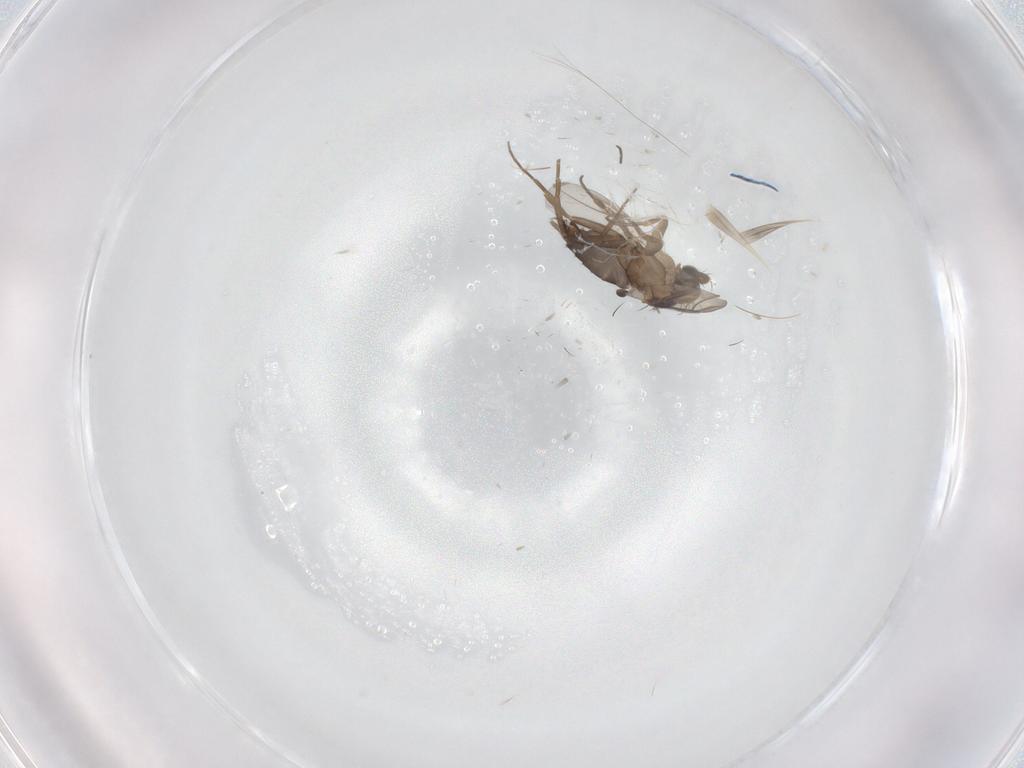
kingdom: Animalia
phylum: Arthropoda
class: Insecta
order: Diptera
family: Phoridae
